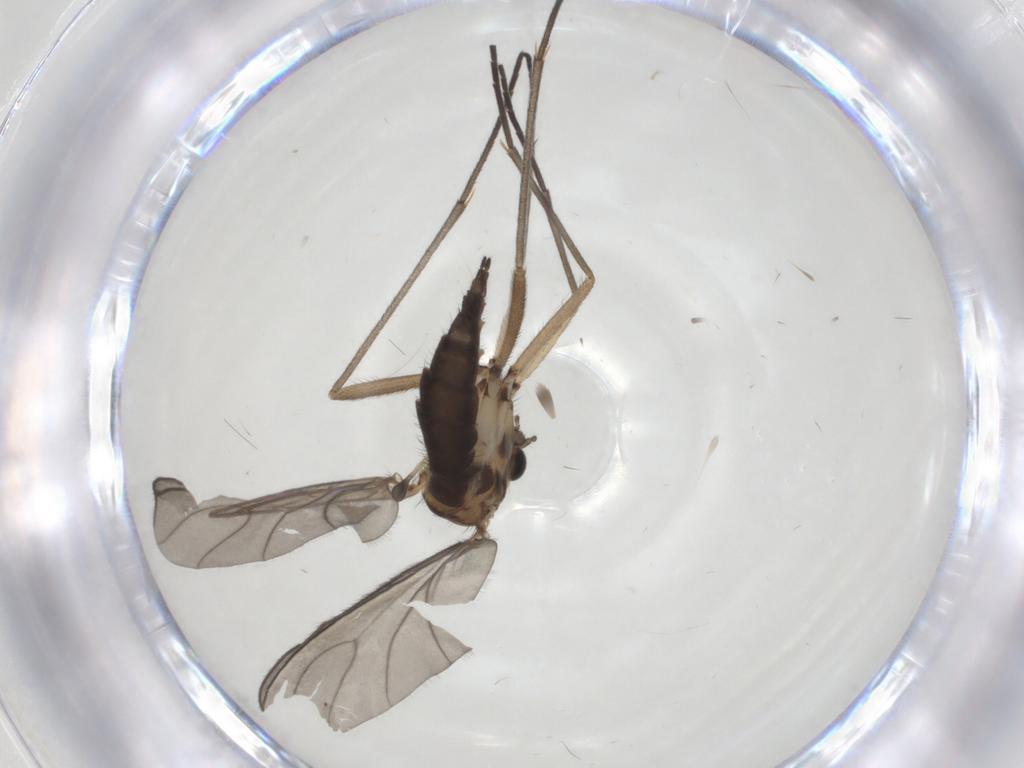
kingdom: Animalia
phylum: Arthropoda
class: Insecta
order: Diptera
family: Sciaridae
